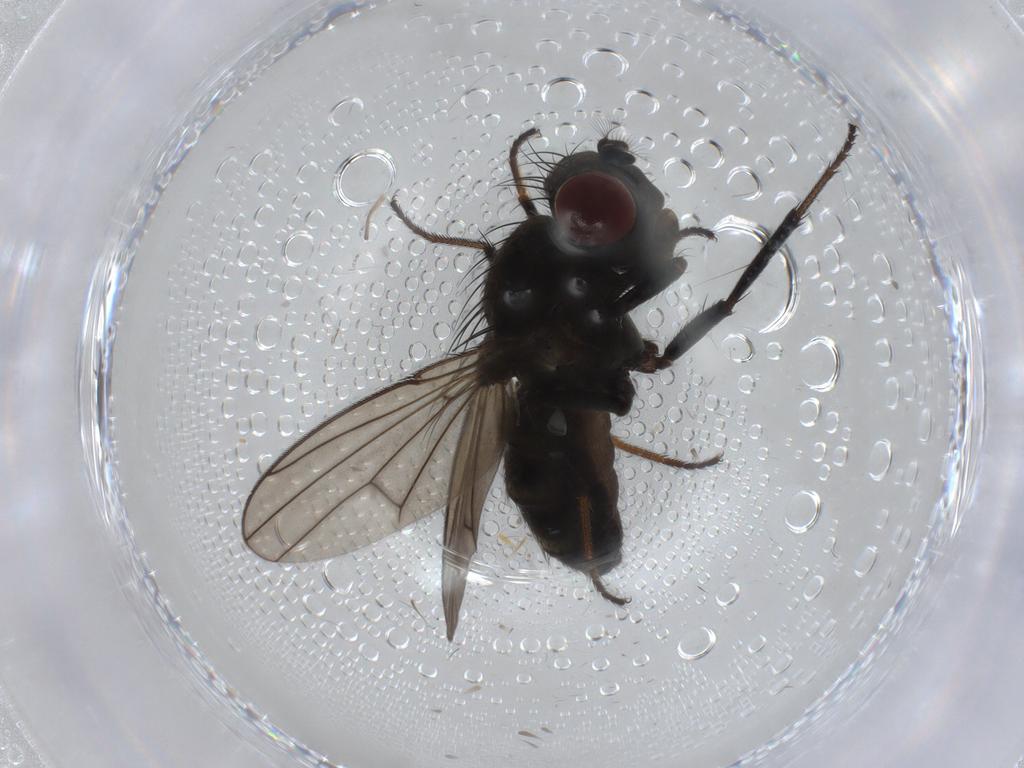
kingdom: Animalia
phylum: Arthropoda
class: Insecta
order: Diptera
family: Ephydridae
